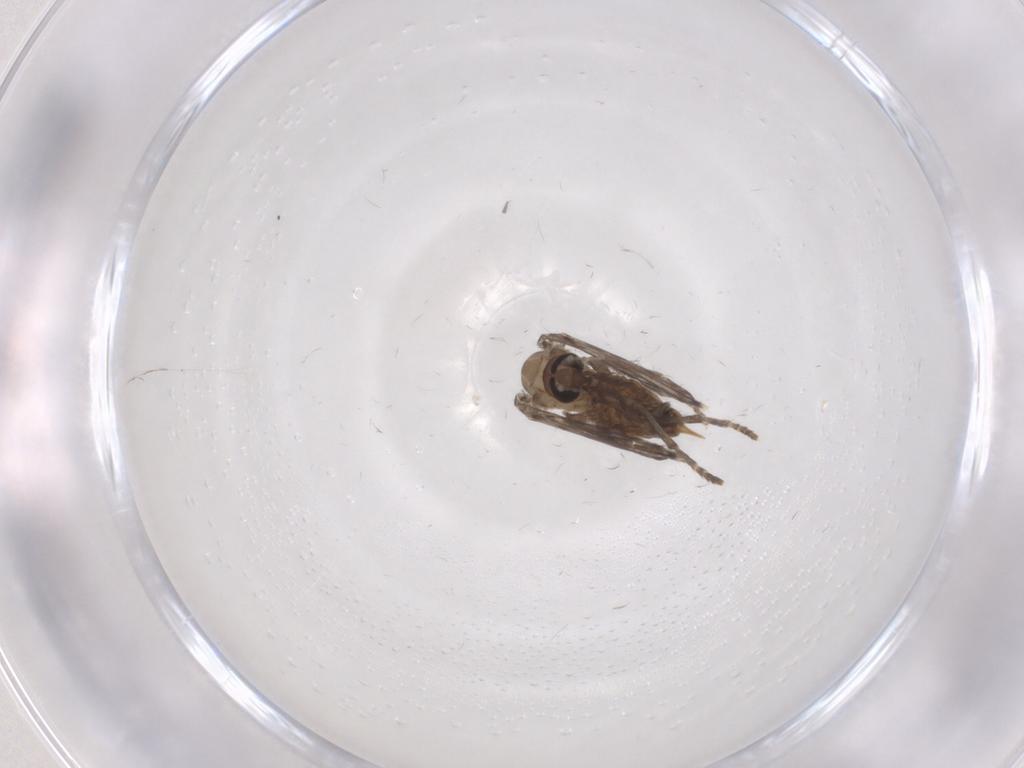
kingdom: Animalia
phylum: Arthropoda
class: Insecta
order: Diptera
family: Psychodidae
